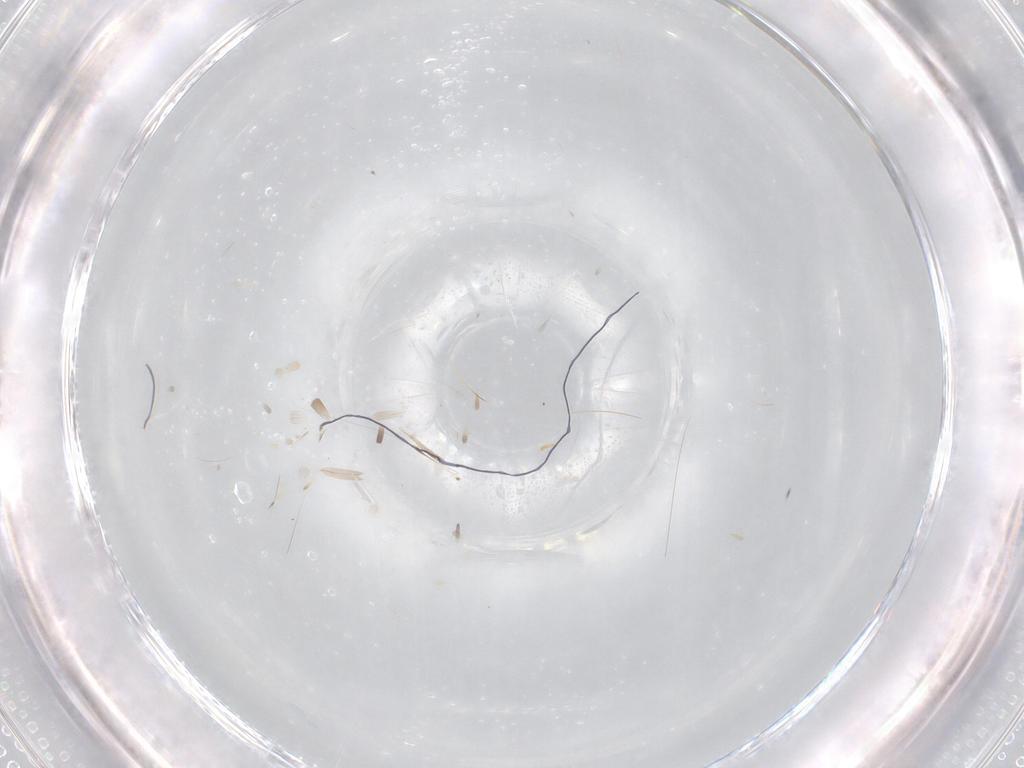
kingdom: Animalia
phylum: Arthropoda
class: Insecta
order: Blattodea
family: Ectobiidae
